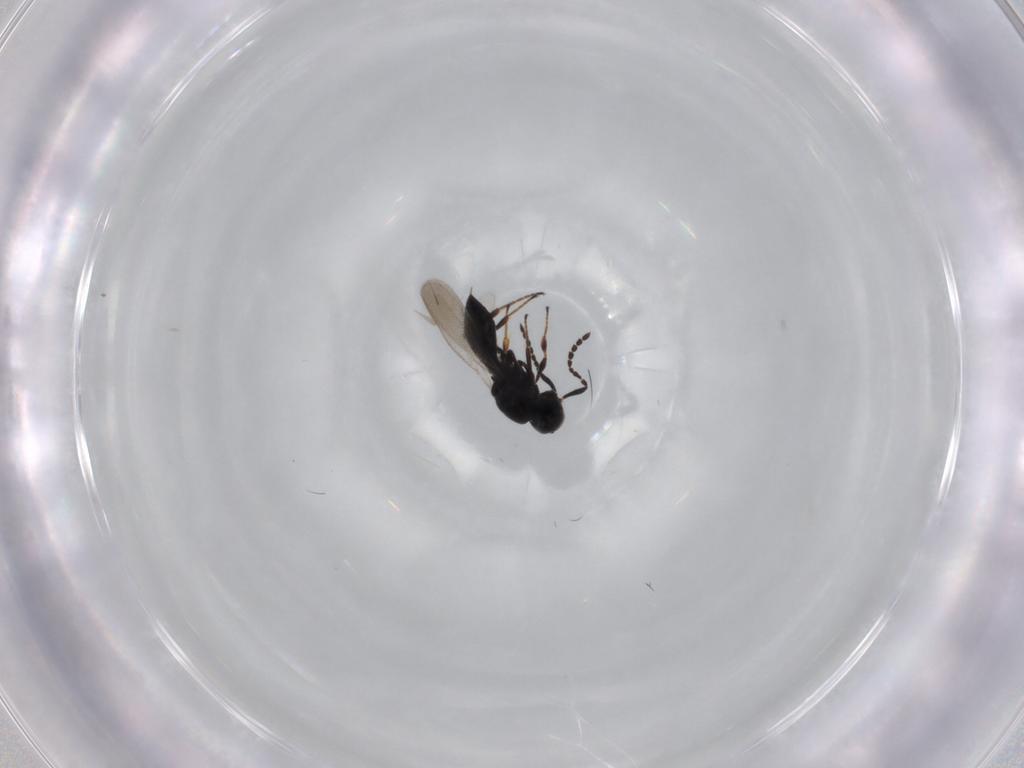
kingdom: Animalia
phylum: Arthropoda
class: Insecta
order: Hymenoptera
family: Platygastridae
